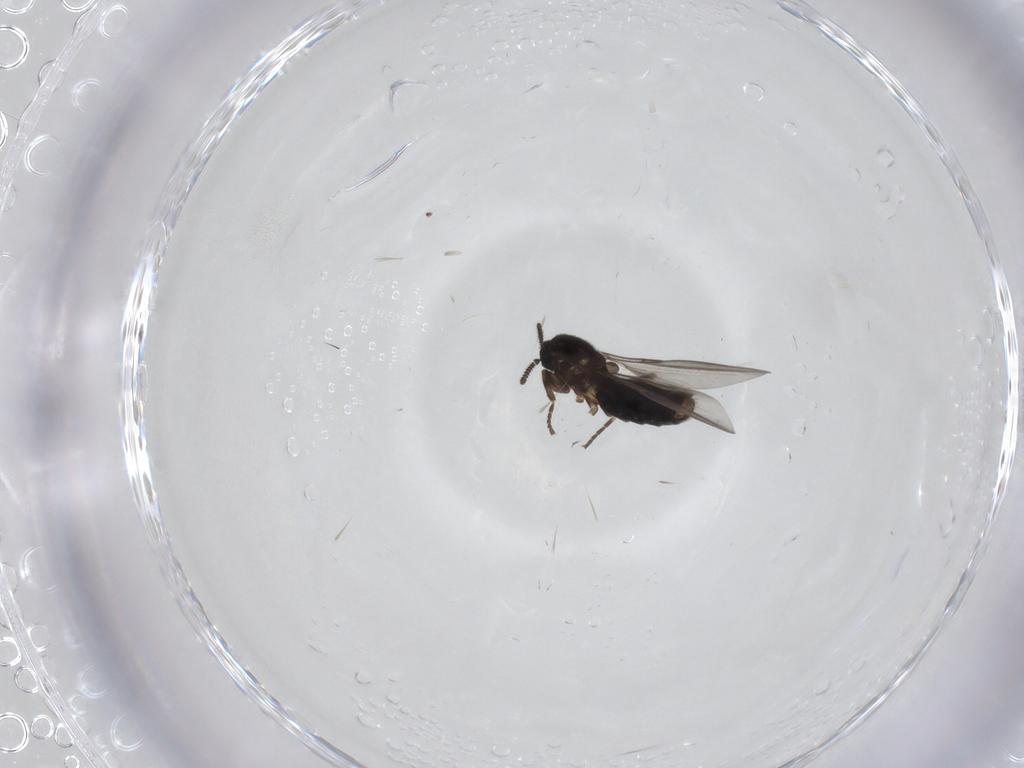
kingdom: Animalia
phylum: Arthropoda
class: Insecta
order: Diptera
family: Scatopsidae
